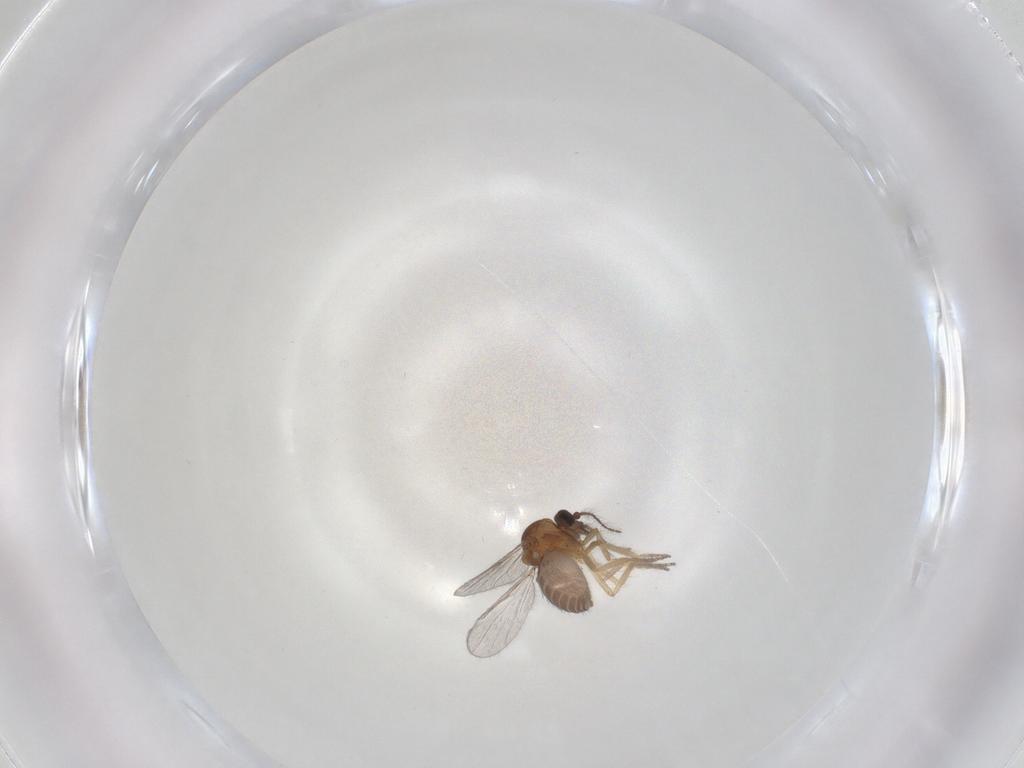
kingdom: Animalia
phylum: Arthropoda
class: Insecta
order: Diptera
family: Ceratopogonidae
